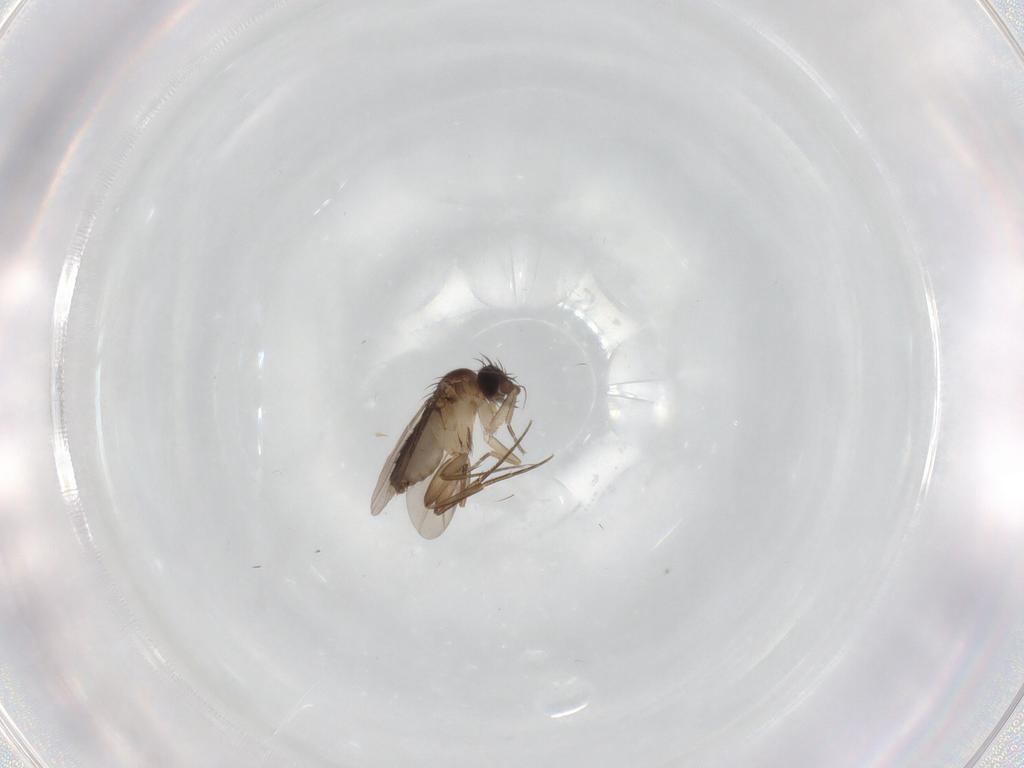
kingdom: Animalia
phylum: Arthropoda
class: Insecta
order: Diptera
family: Phoridae
